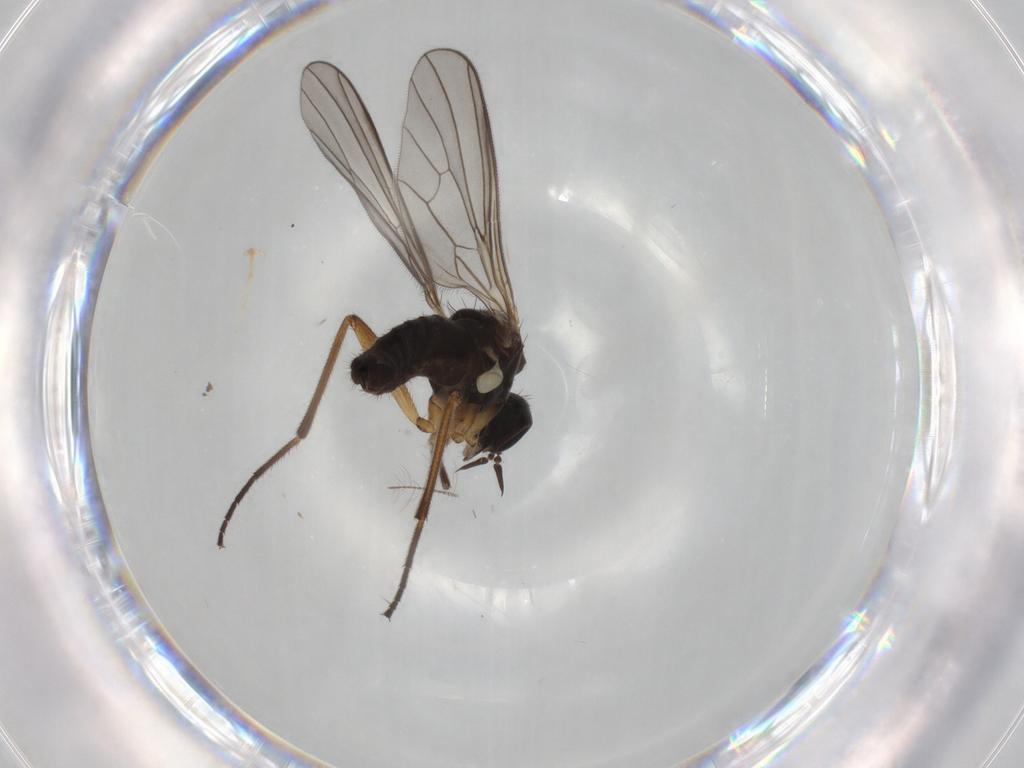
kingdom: Animalia
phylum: Arthropoda
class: Insecta
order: Diptera
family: Empididae
